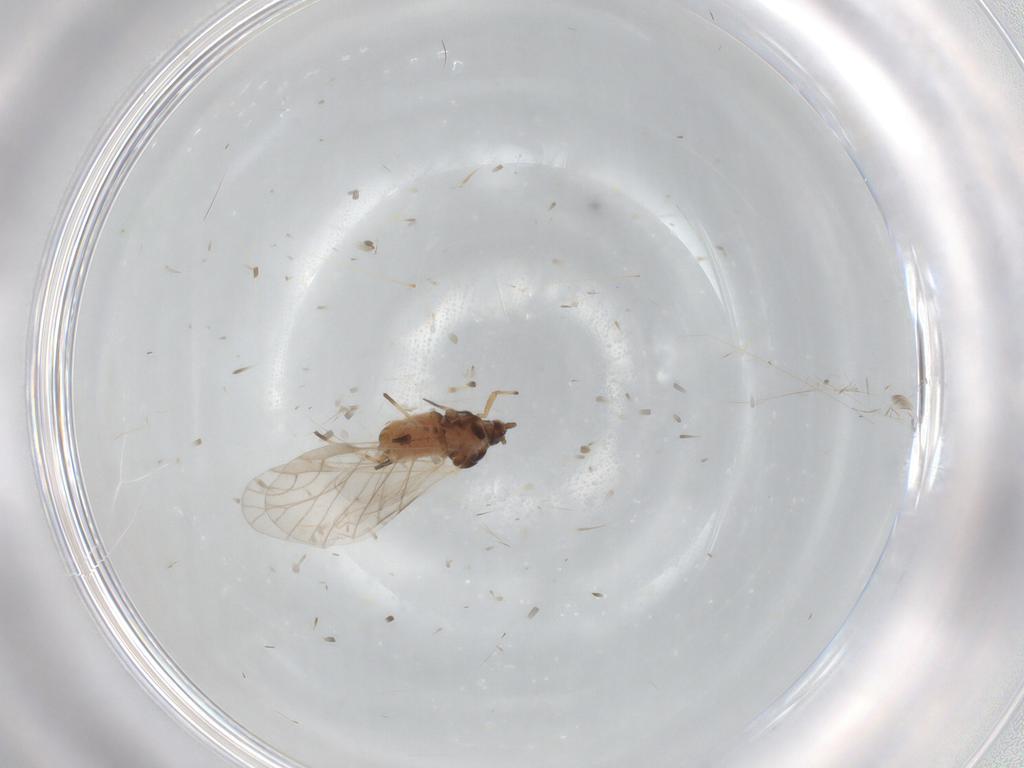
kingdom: Animalia
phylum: Arthropoda
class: Insecta
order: Hemiptera
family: Aphididae
